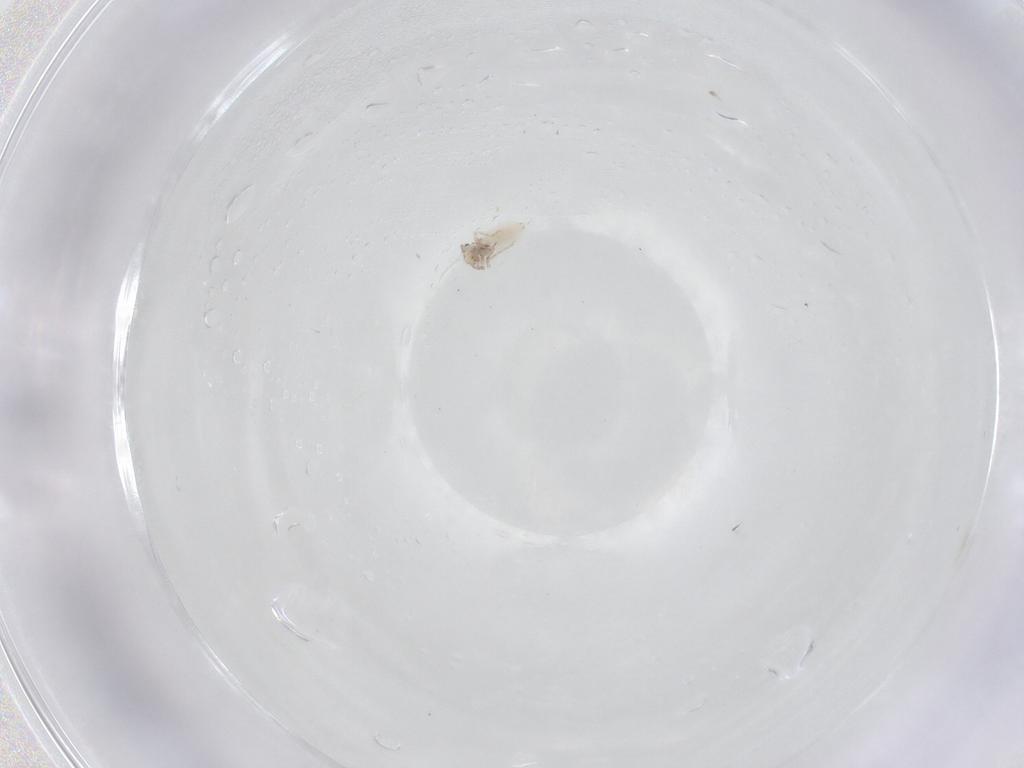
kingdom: Animalia
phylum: Arthropoda
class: Insecta
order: Psocodea
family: Lepidopsocidae
